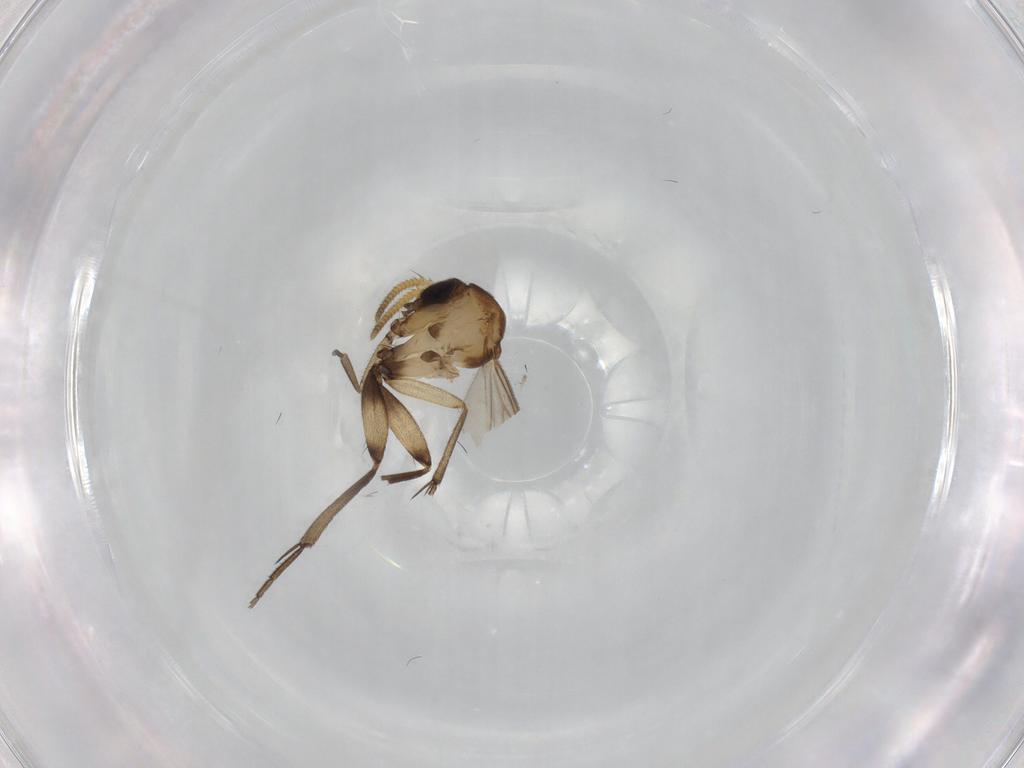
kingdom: Animalia
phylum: Arthropoda
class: Insecta
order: Diptera
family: Mycetophilidae
